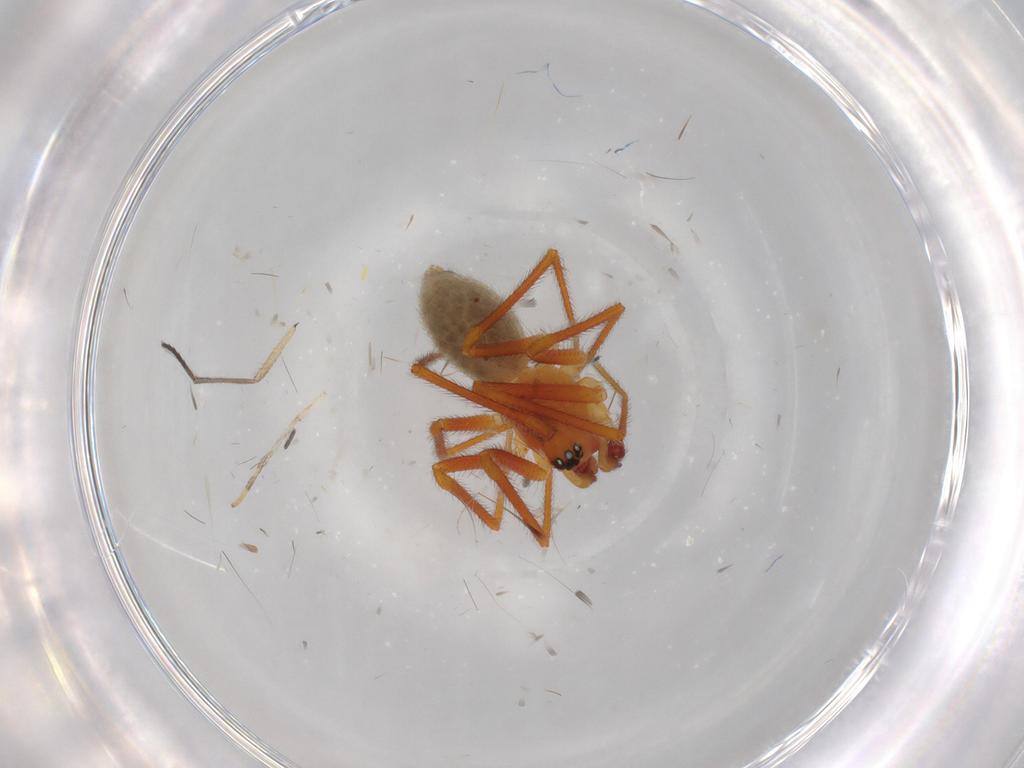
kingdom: Animalia
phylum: Arthropoda
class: Arachnida
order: Araneae
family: Linyphiidae
